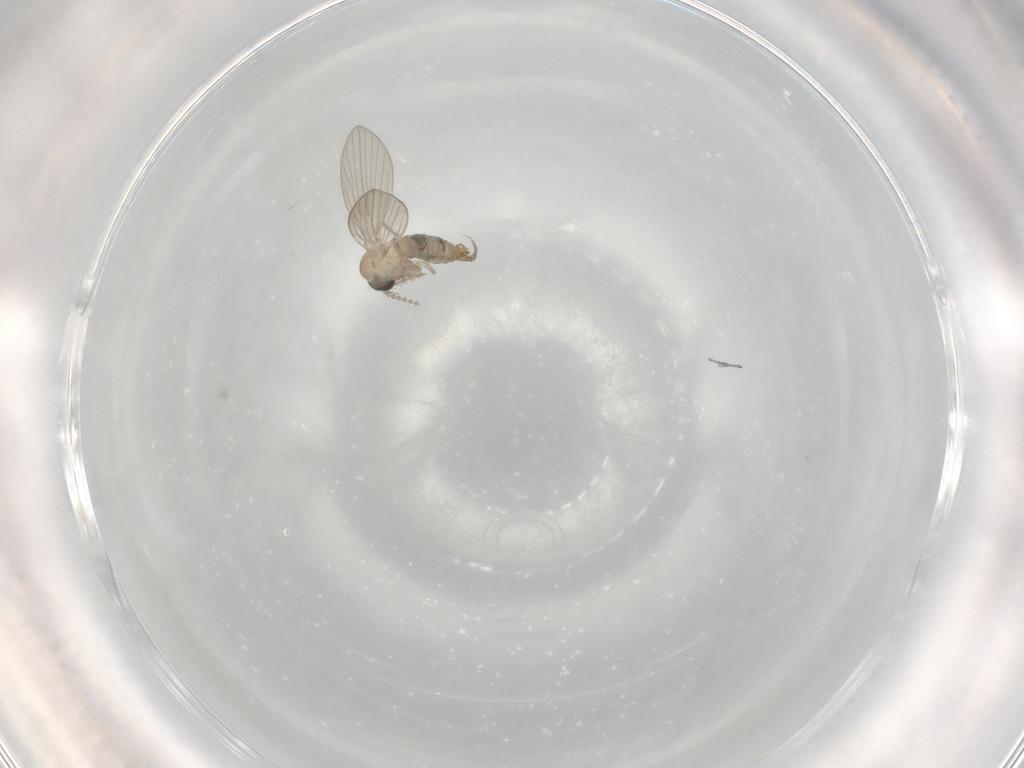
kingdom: Animalia
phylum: Arthropoda
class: Insecta
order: Diptera
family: Psychodidae
